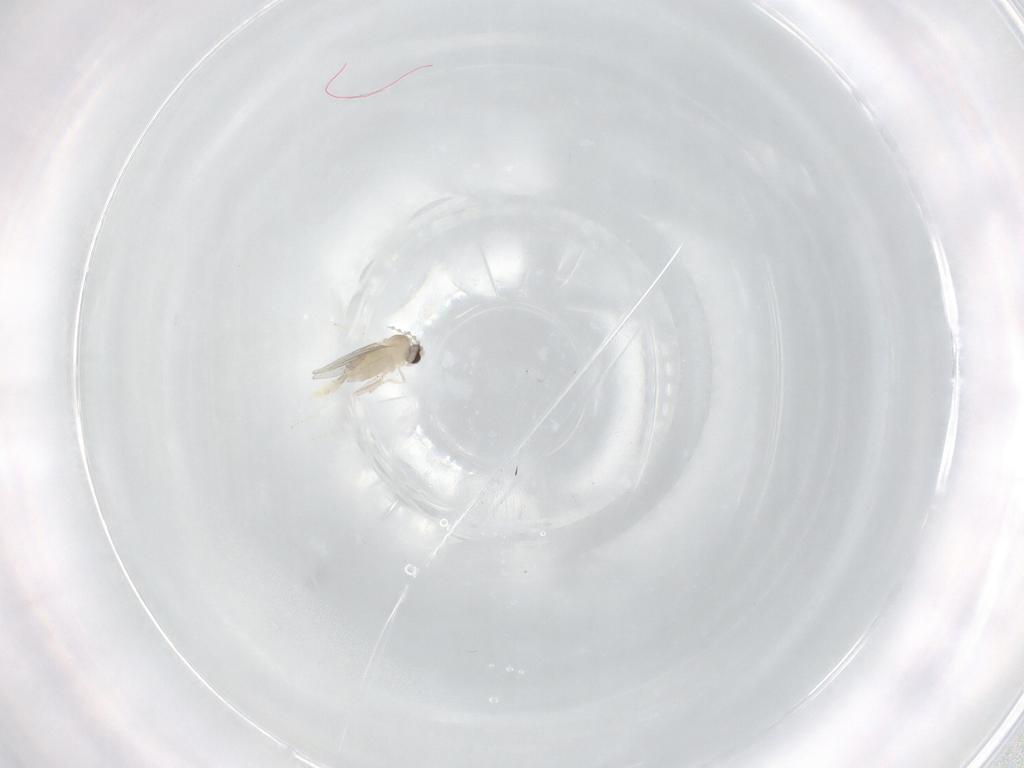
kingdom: Animalia
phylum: Arthropoda
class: Insecta
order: Diptera
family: Cecidomyiidae
